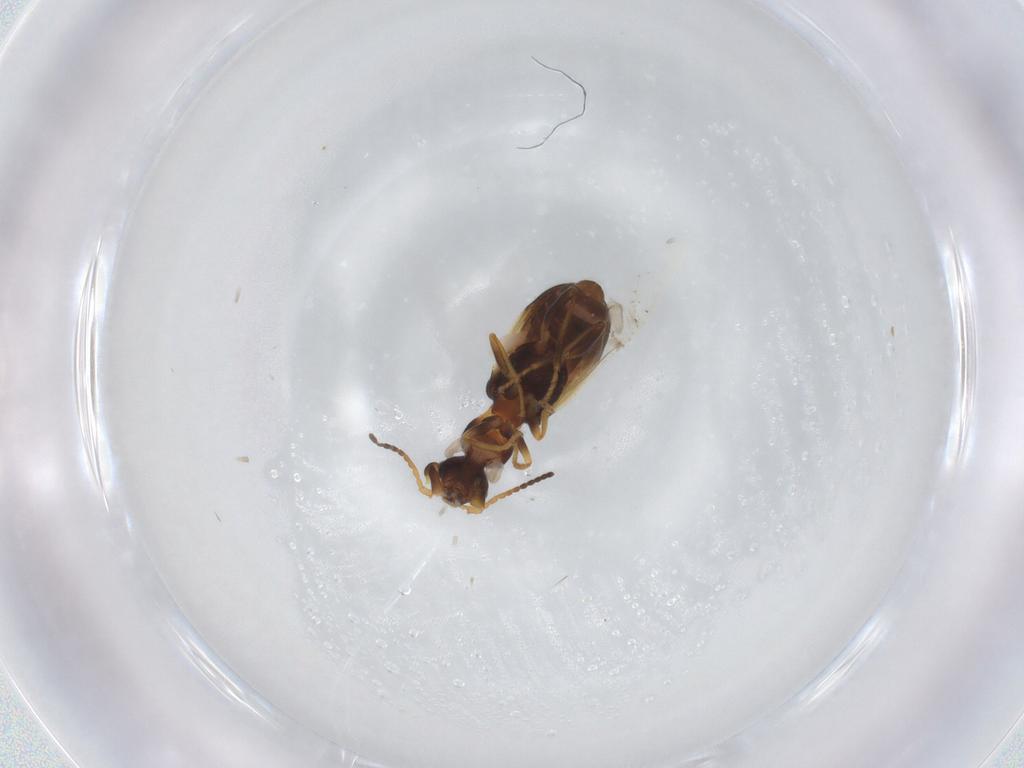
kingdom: Animalia
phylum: Arthropoda
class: Insecta
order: Coleoptera
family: Melyridae
